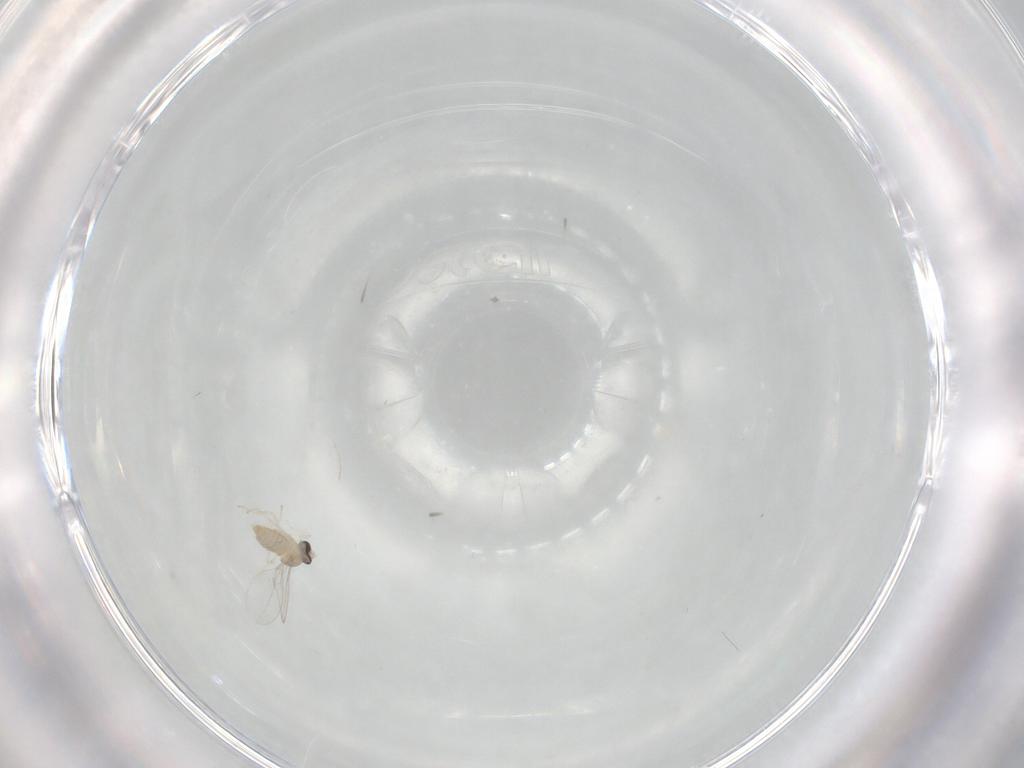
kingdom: Animalia
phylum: Arthropoda
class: Insecta
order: Diptera
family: Cecidomyiidae
